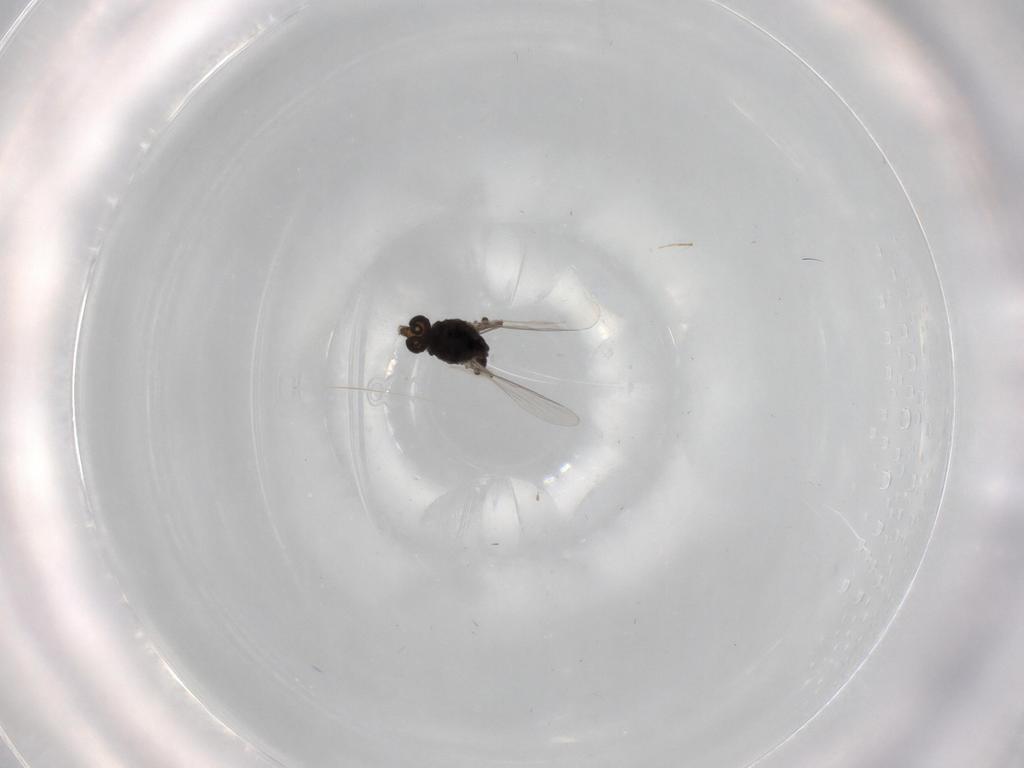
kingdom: Animalia
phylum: Arthropoda
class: Insecta
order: Diptera
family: Chironomidae
